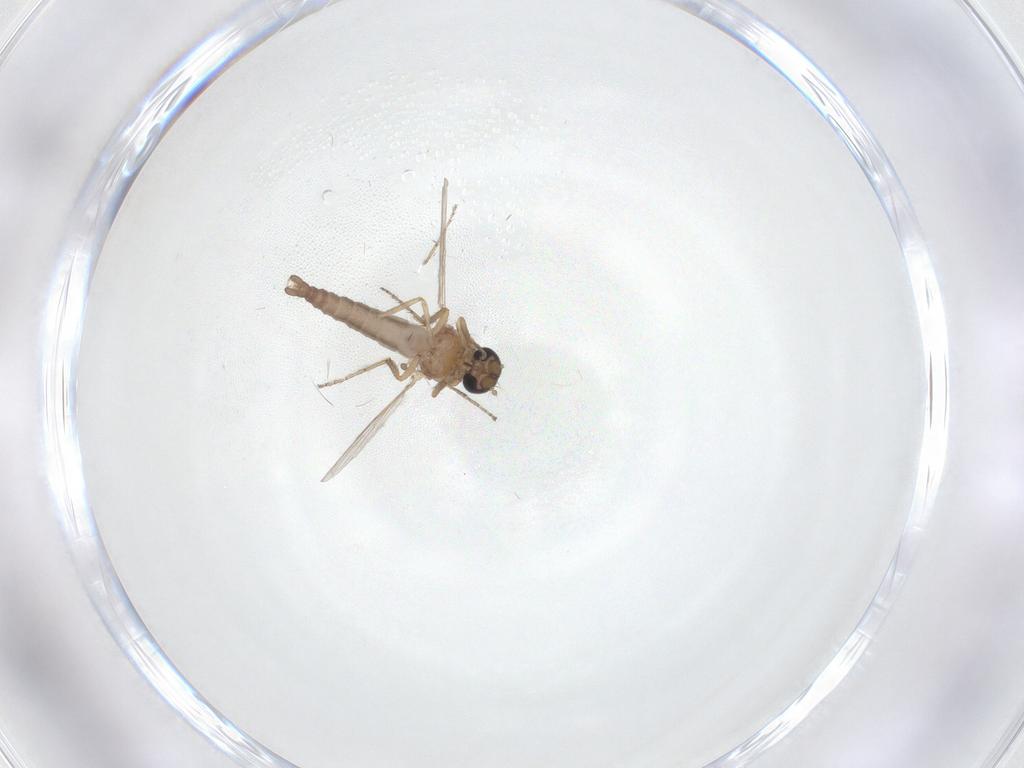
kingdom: Animalia
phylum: Arthropoda
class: Insecta
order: Diptera
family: Ceratopogonidae
